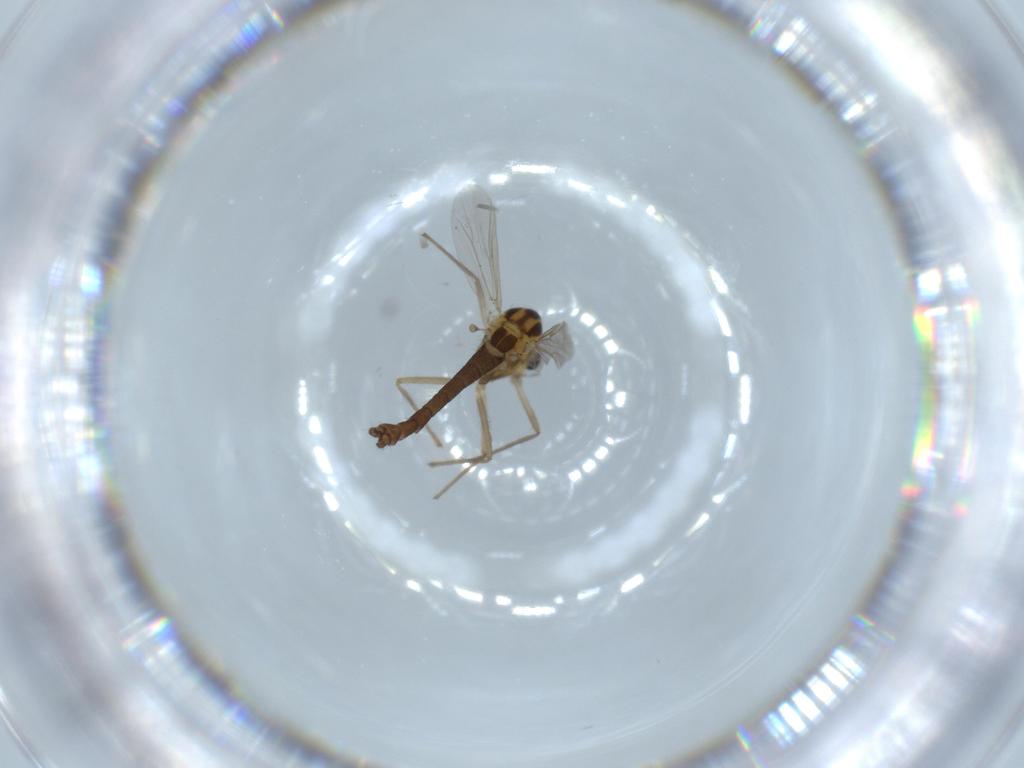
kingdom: Animalia
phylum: Arthropoda
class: Insecta
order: Diptera
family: Chironomidae
